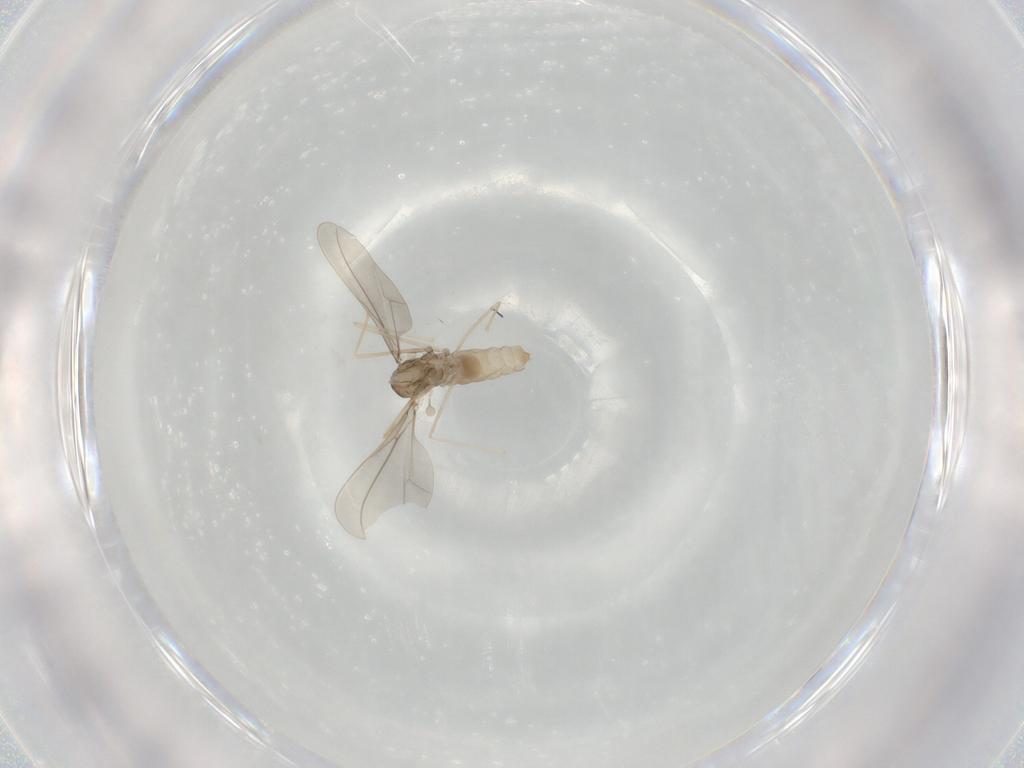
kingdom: Animalia
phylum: Arthropoda
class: Insecta
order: Diptera
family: Cecidomyiidae
